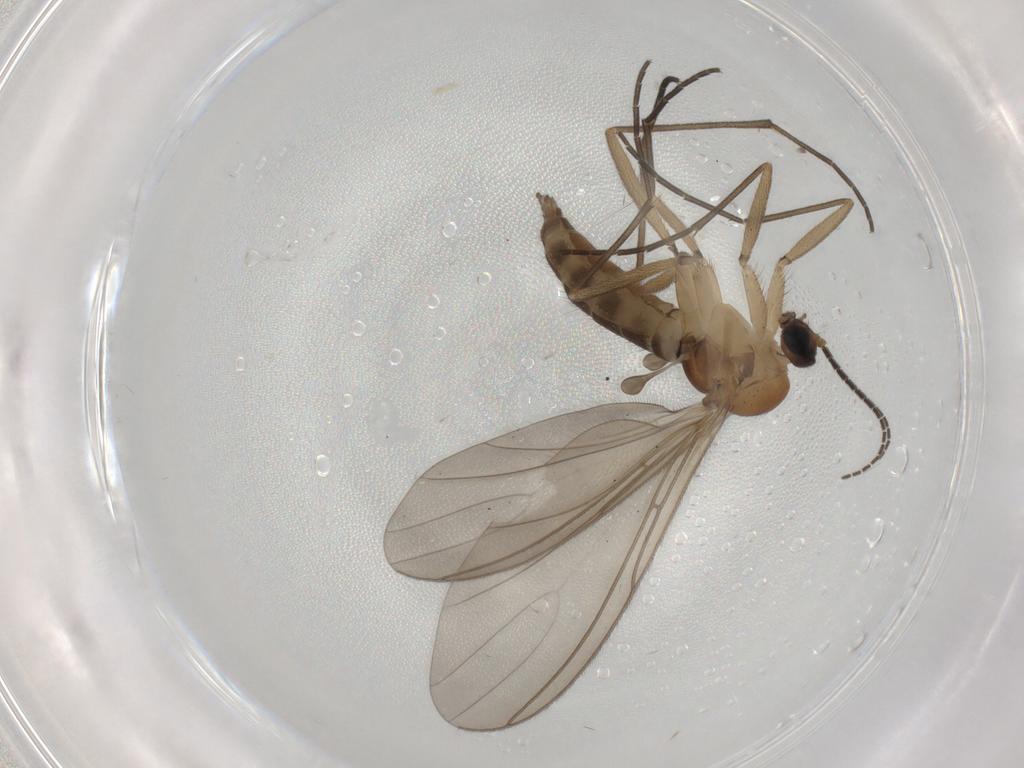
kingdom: Animalia
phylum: Arthropoda
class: Insecta
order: Diptera
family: Sciaridae
